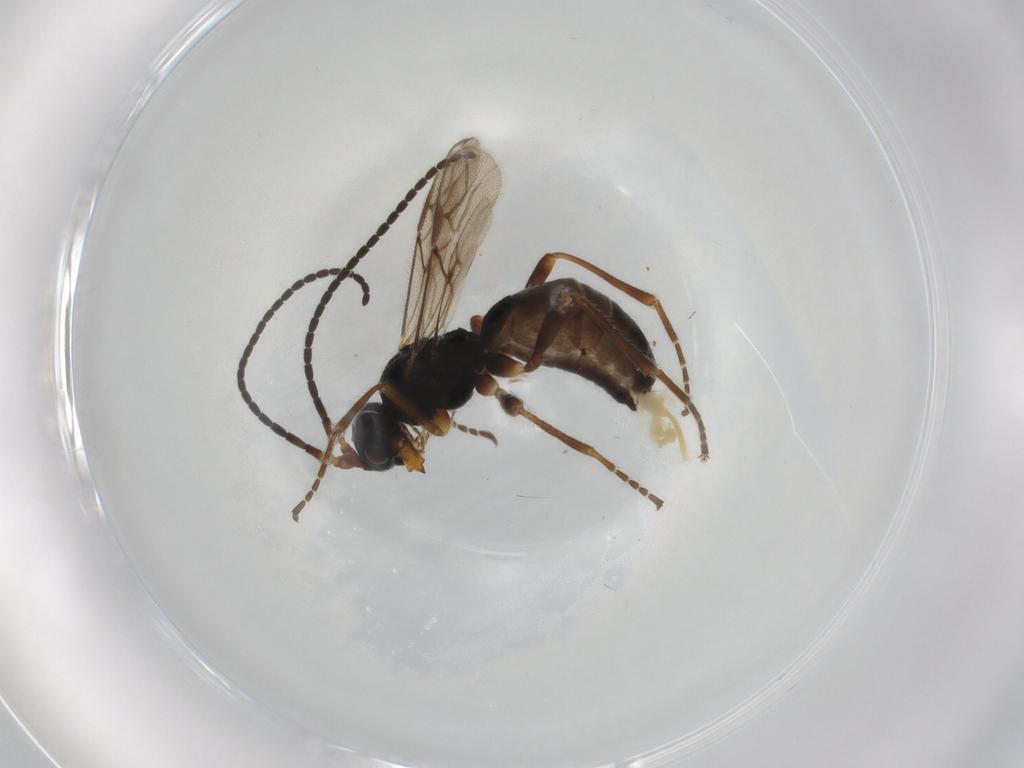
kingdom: Animalia
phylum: Arthropoda
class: Insecta
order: Hymenoptera
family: Braconidae
